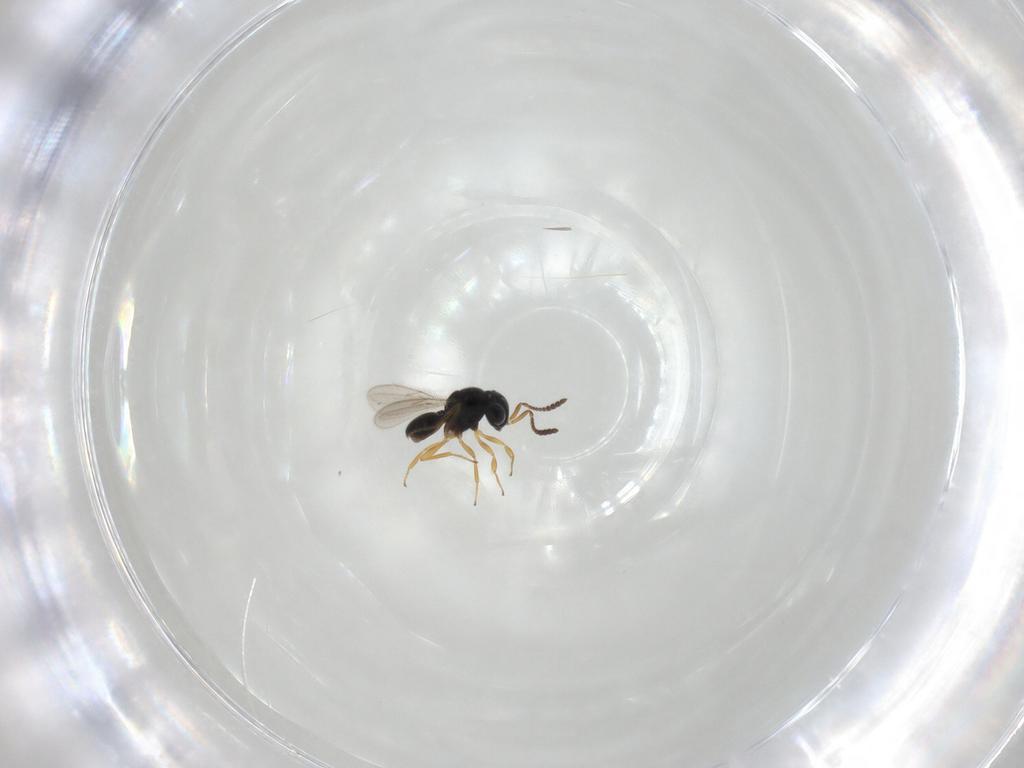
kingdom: Animalia
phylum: Arthropoda
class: Insecta
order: Hymenoptera
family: Scelionidae
